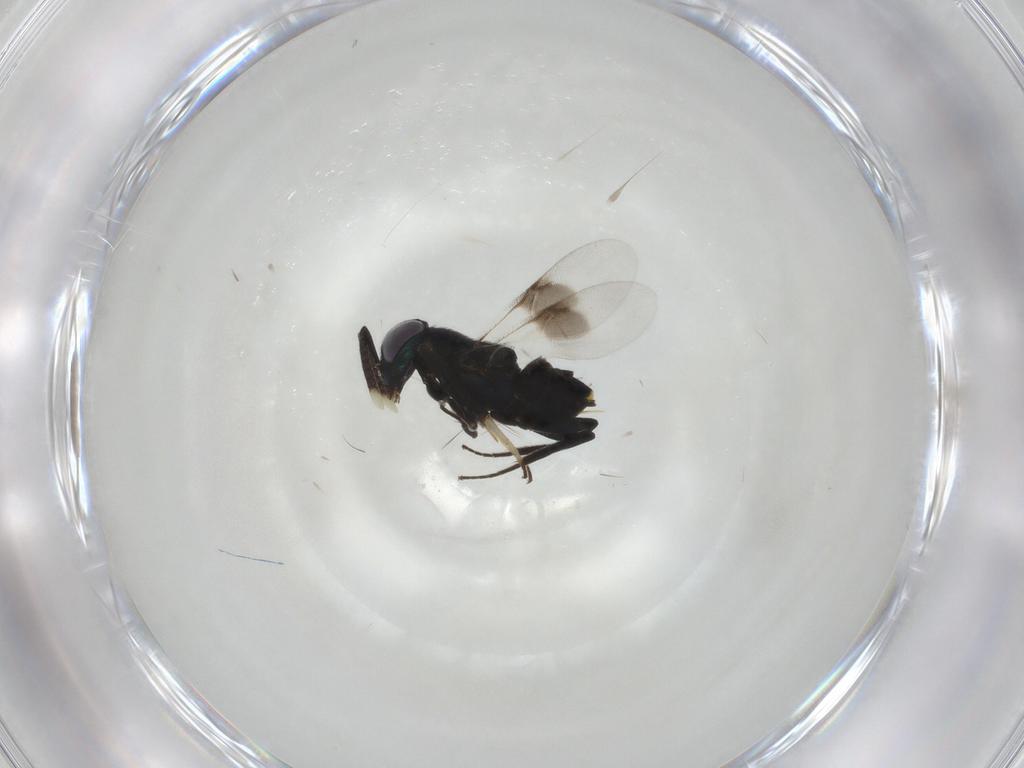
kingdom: Animalia
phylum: Arthropoda
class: Insecta
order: Hymenoptera
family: Encyrtidae
